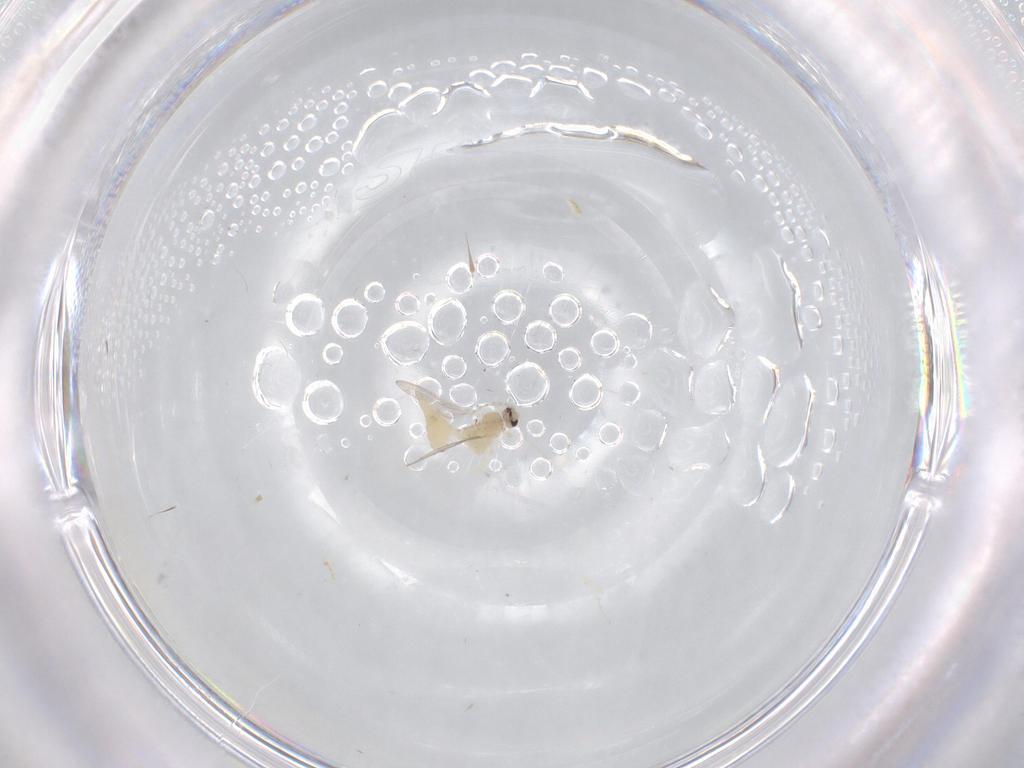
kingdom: Animalia
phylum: Arthropoda
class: Insecta
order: Diptera
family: Cecidomyiidae
